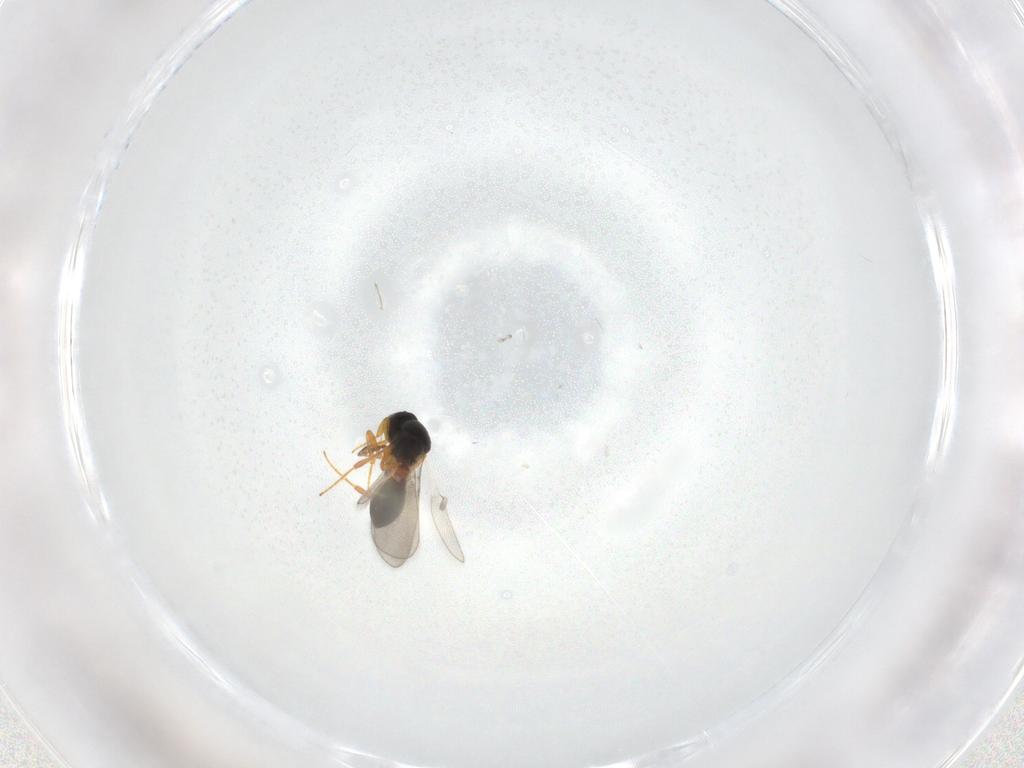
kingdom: Animalia
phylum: Arthropoda
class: Insecta
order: Hymenoptera
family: Platygastridae
